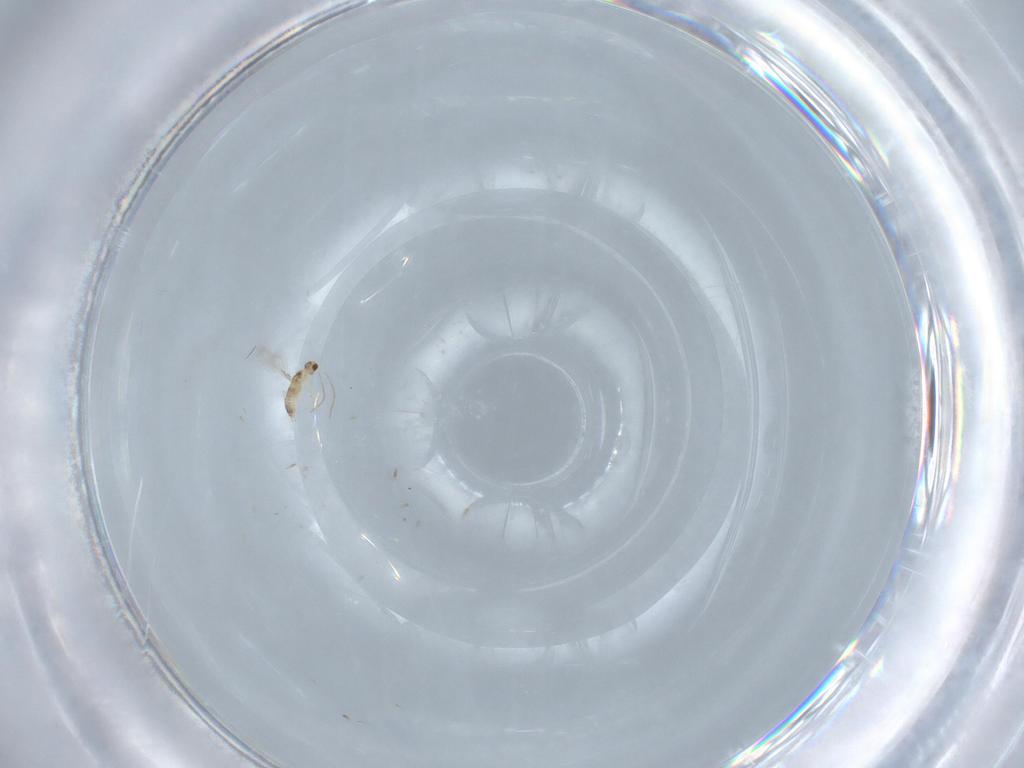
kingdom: Animalia
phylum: Arthropoda
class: Insecta
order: Hymenoptera
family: Mymaridae
